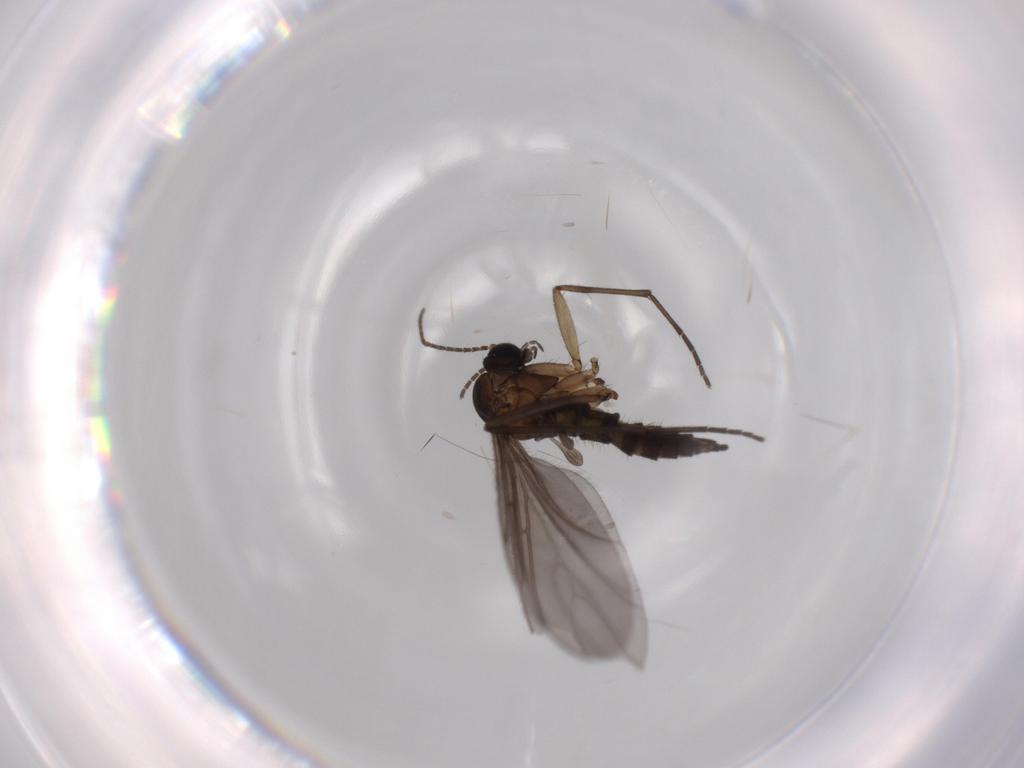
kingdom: Animalia
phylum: Arthropoda
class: Insecta
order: Diptera
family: Sciaridae
